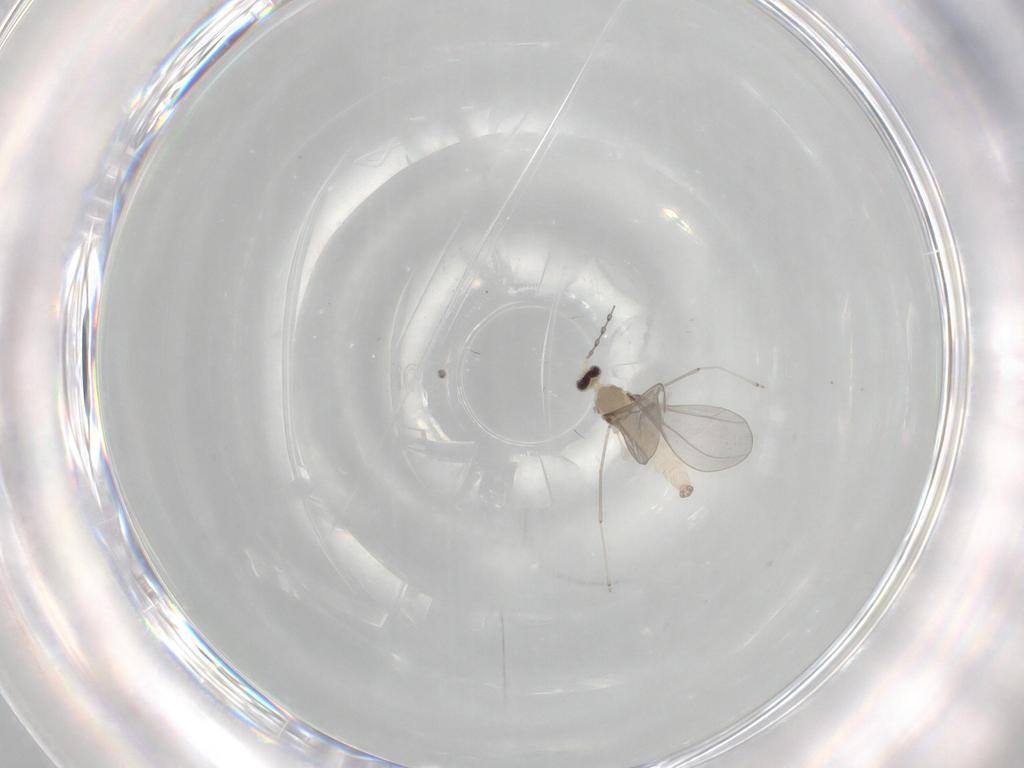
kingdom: Animalia
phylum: Arthropoda
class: Insecta
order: Diptera
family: Cecidomyiidae
